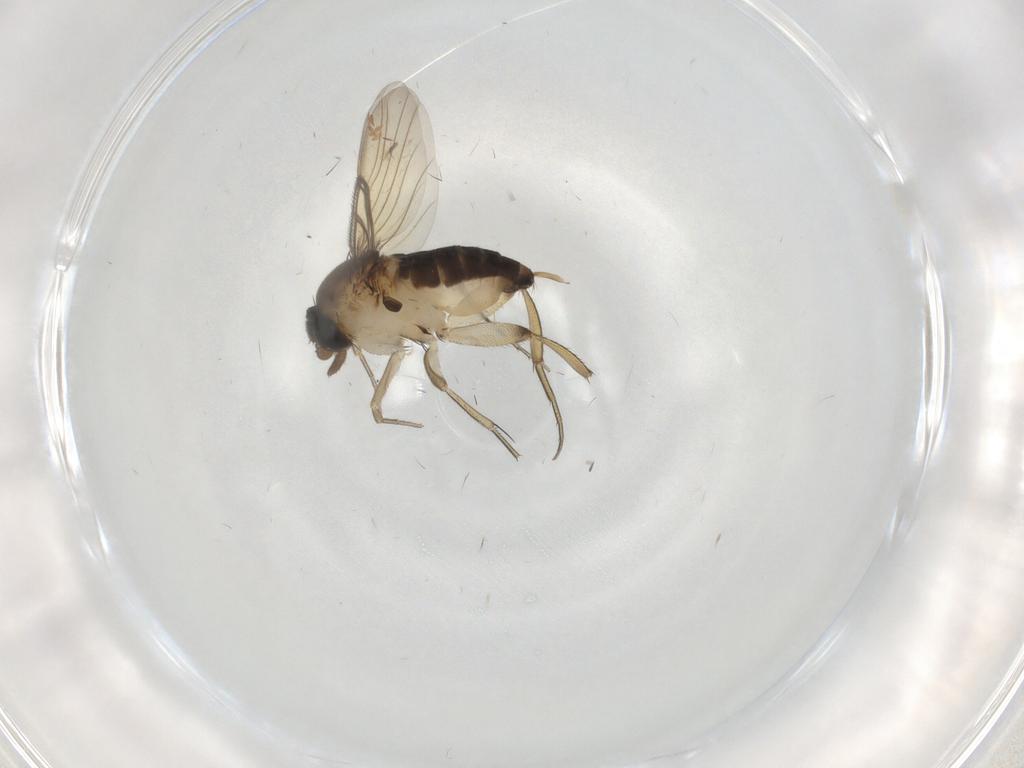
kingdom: Animalia
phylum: Arthropoda
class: Insecta
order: Diptera
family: Phoridae
